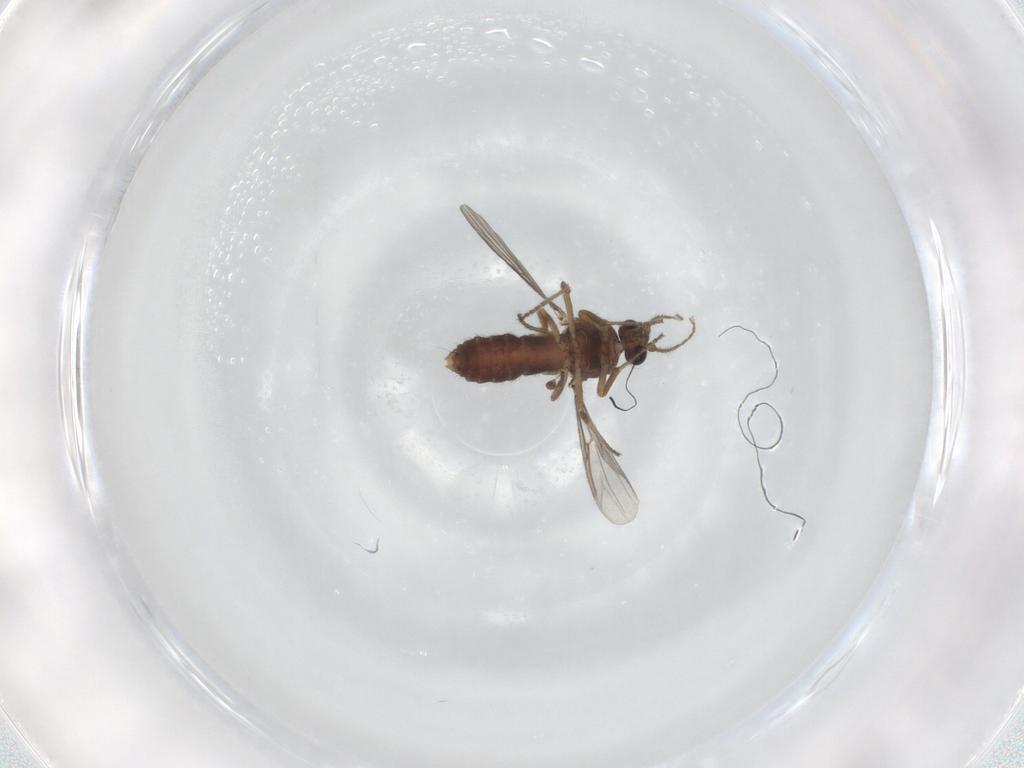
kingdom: Animalia
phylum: Arthropoda
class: Insecta
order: Diptera
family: Ceratopogonidae
